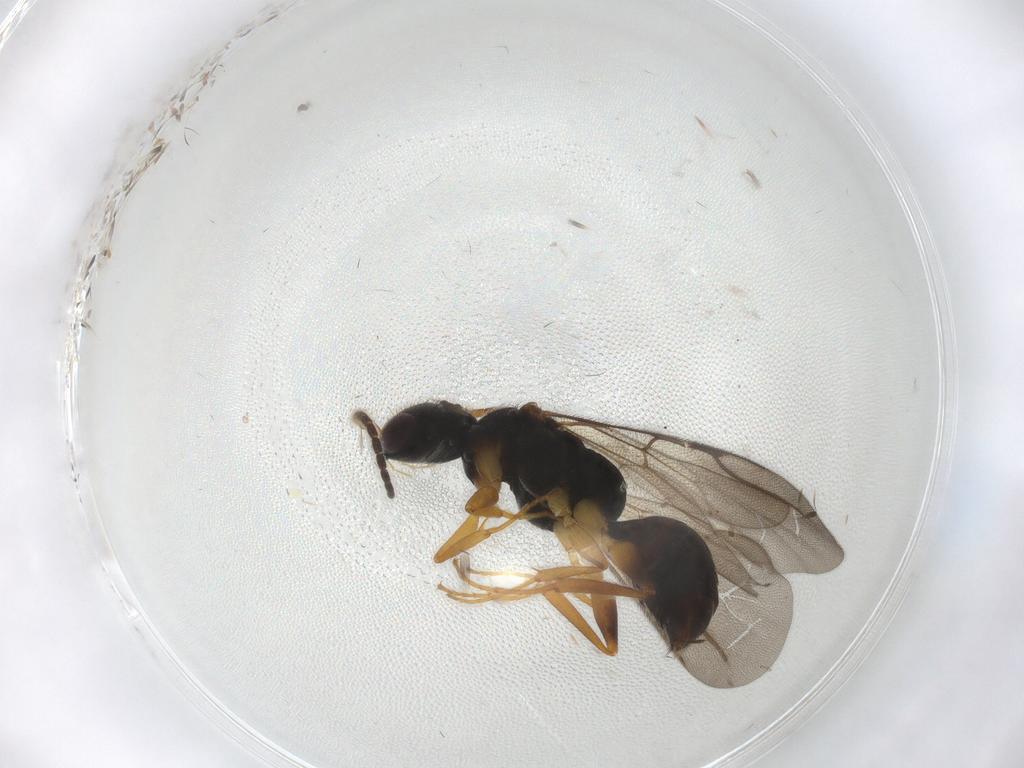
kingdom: Animalia
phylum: Arthropoda
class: Insecta
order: Hymenoptera
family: Bethylidae
